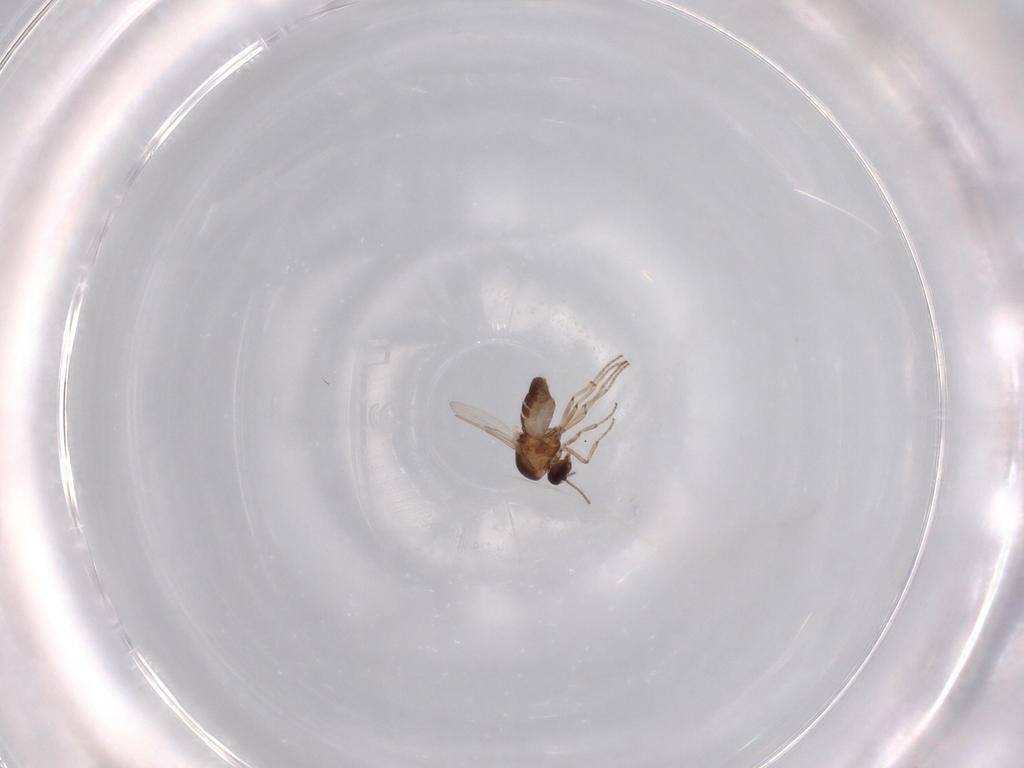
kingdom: Animalia
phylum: Arthropoda
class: Insecta
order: Diptera
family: Ceratopogonidae
